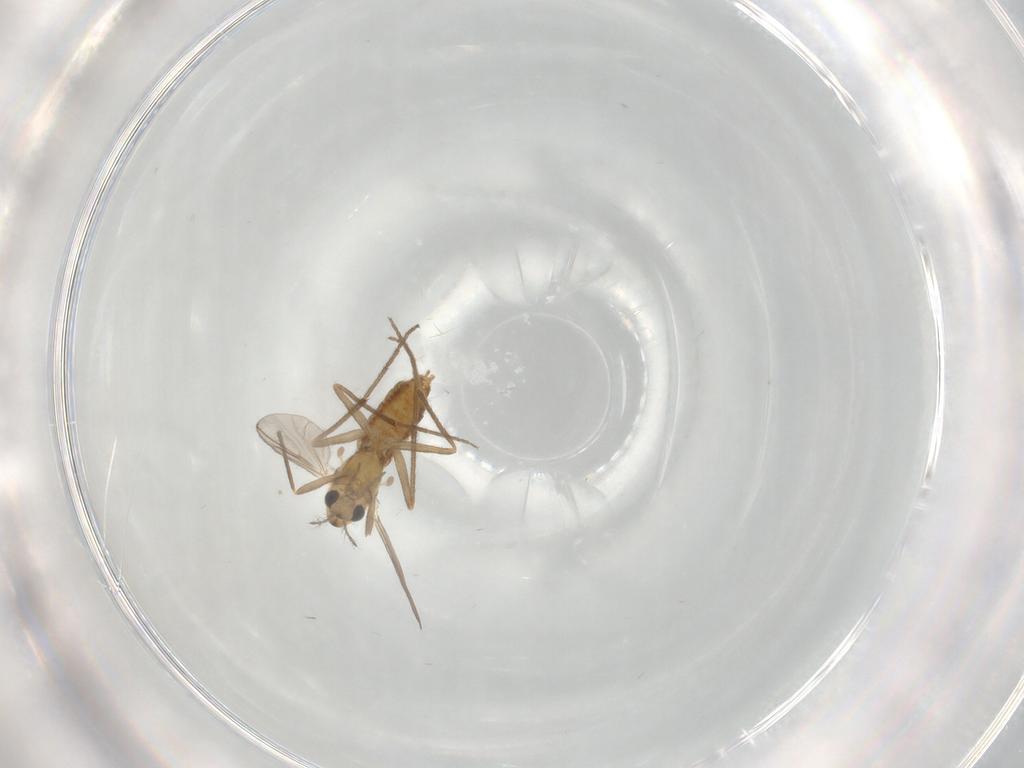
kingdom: Animalia
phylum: Arthropoda
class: Insecta
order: Diptera
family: Chironomidae
